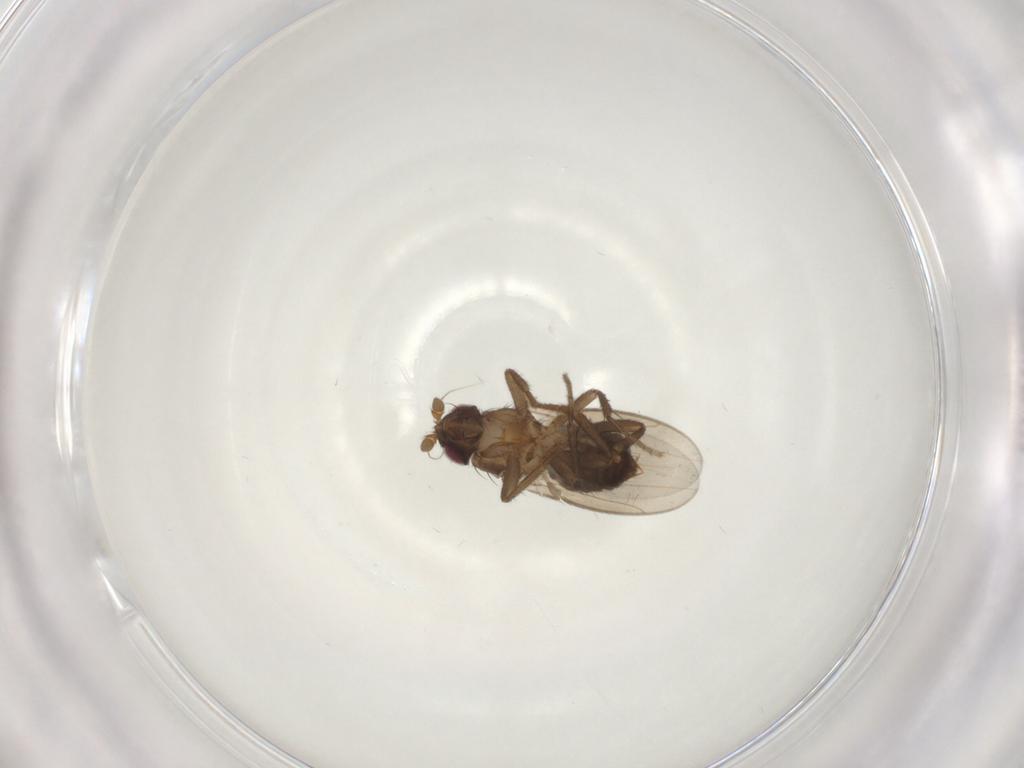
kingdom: Animalia
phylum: Arthropoda
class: Insecta
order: Diptera
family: Sphaeroceridae
